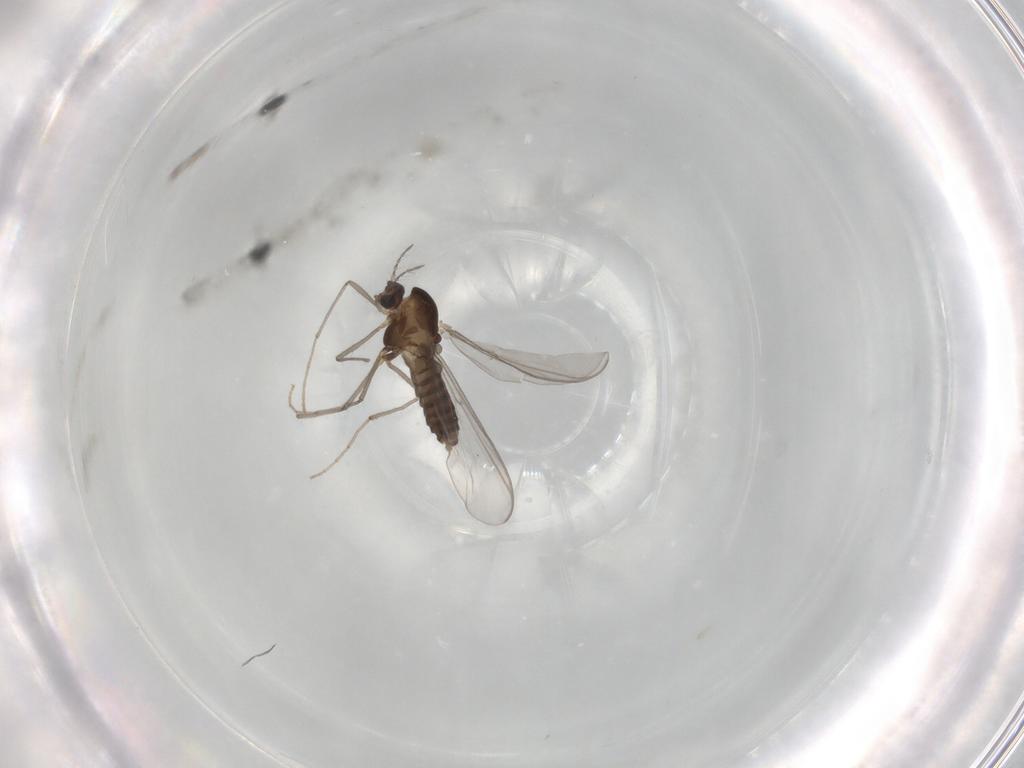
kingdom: Animalia
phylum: Arthropoda
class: Insecta
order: Diptera
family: Chironomidae
